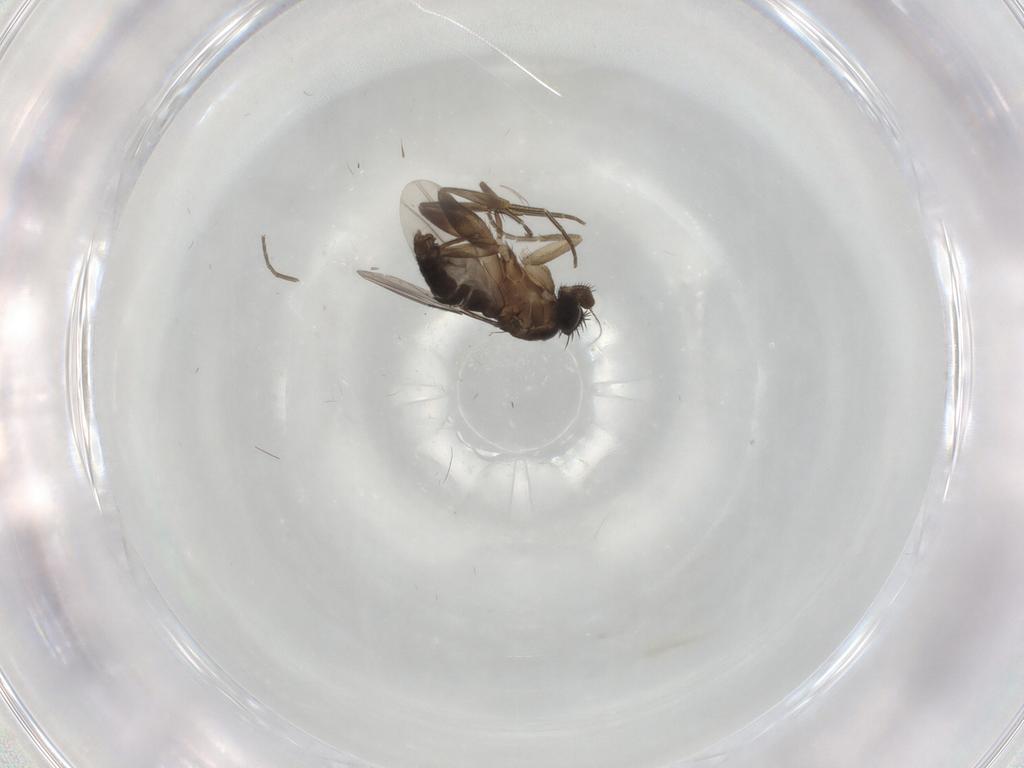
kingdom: Animalia
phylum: Arthropoda
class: Insecta
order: Diptera
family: Phoridae
